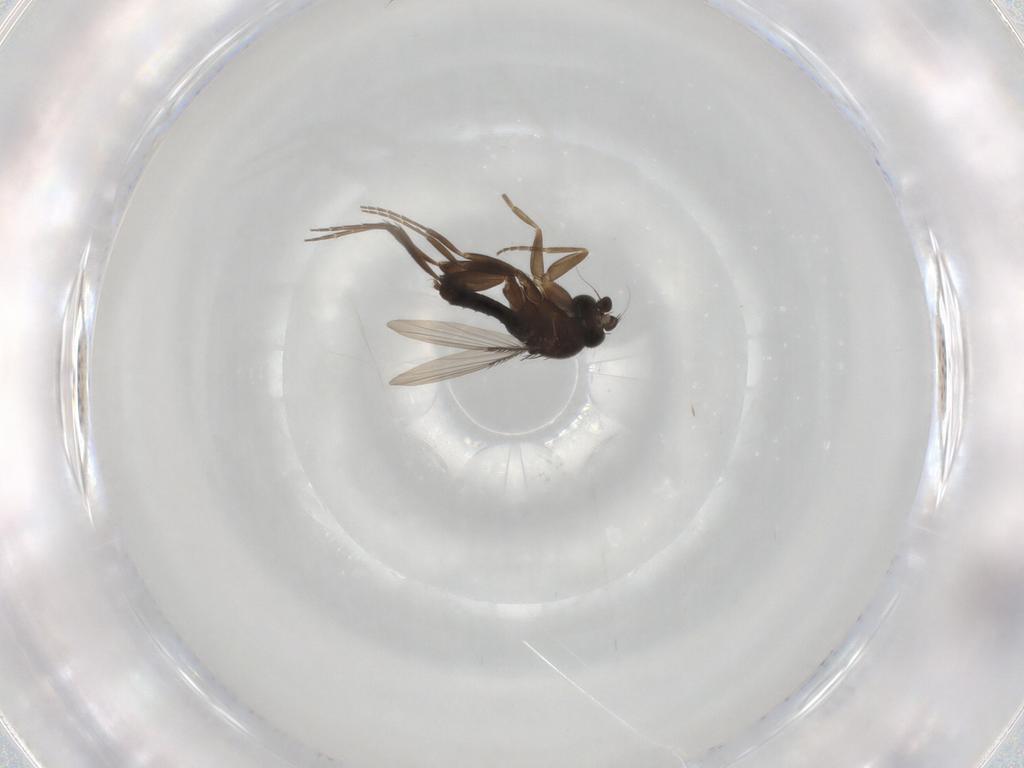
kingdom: Animalia
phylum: Arthropoda
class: Insecta
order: Diptera
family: Phoridae
